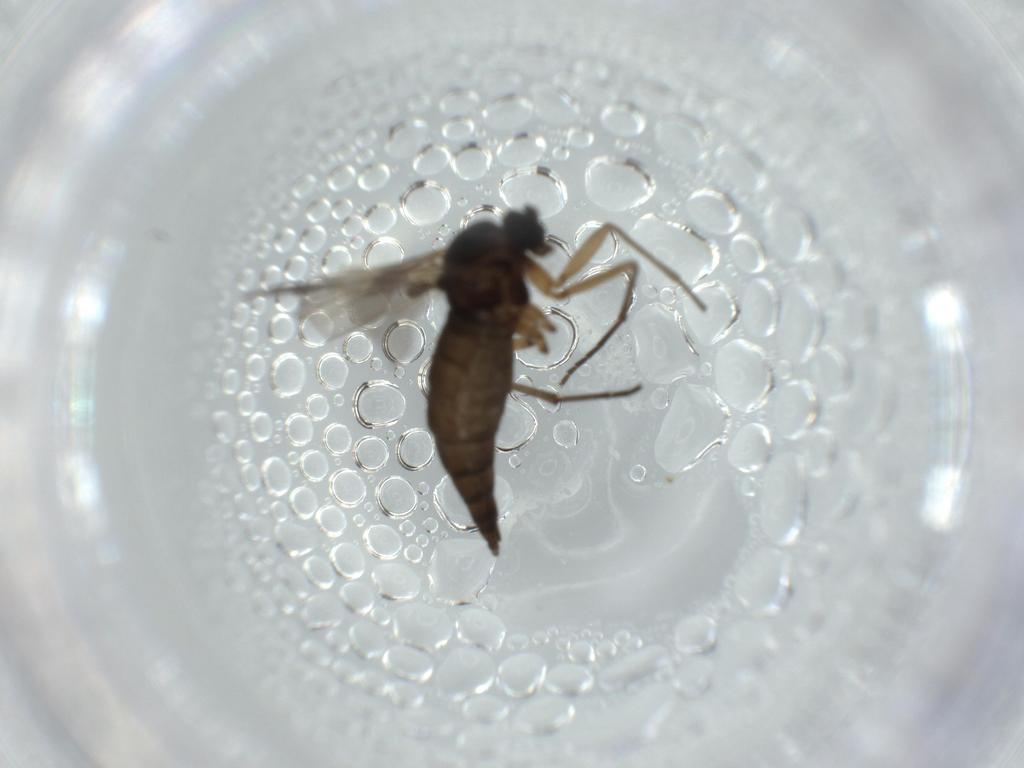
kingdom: Animalia
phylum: Arthropoda
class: Insecta
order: Diptera
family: Sciaridae
